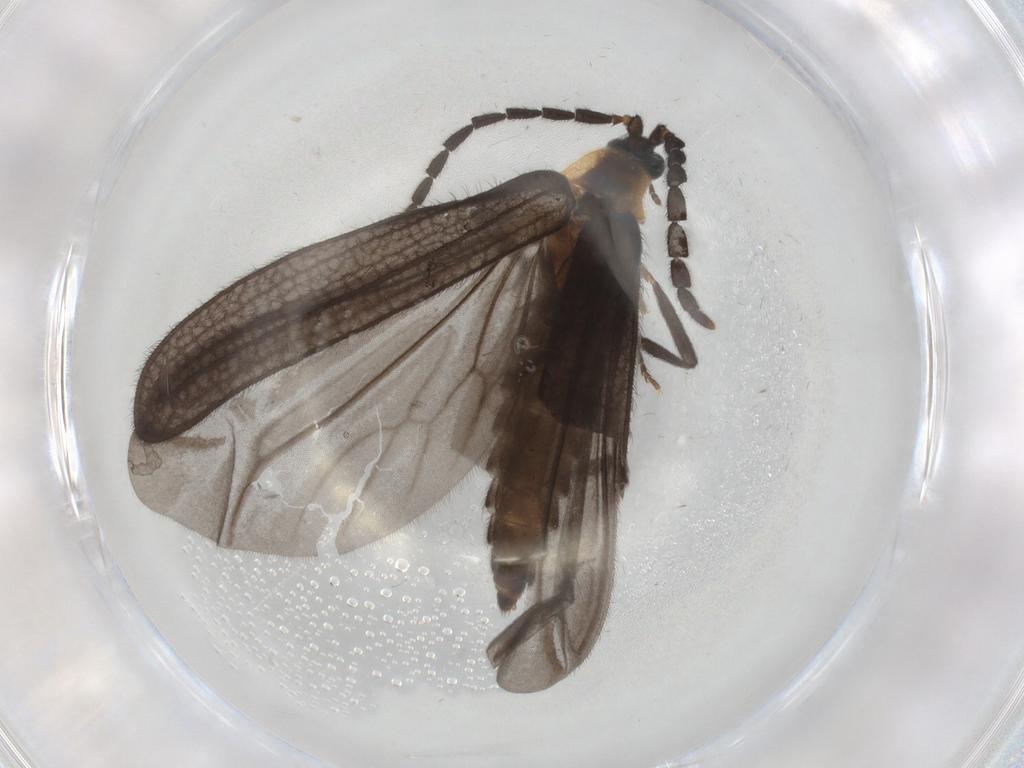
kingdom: Animalia
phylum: Arthropoda
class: Insecta
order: Coleoptera
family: Lycidae
